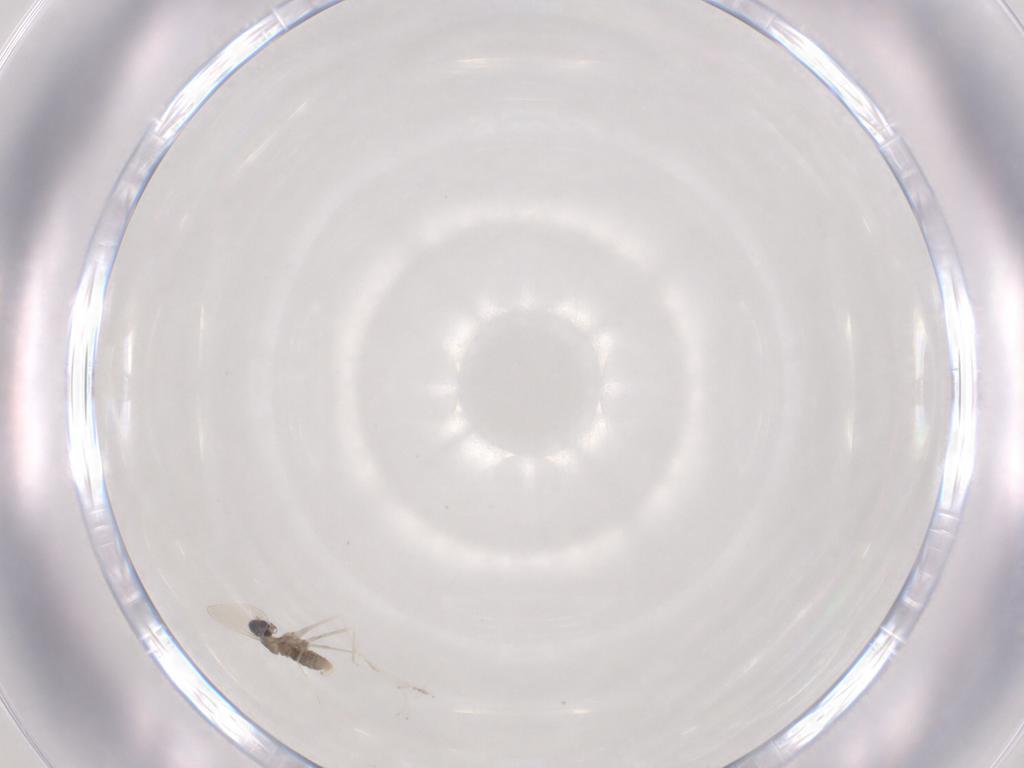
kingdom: Animalia
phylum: Arthropoda
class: Insecta
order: Diptera
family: Cecidomyiidae
